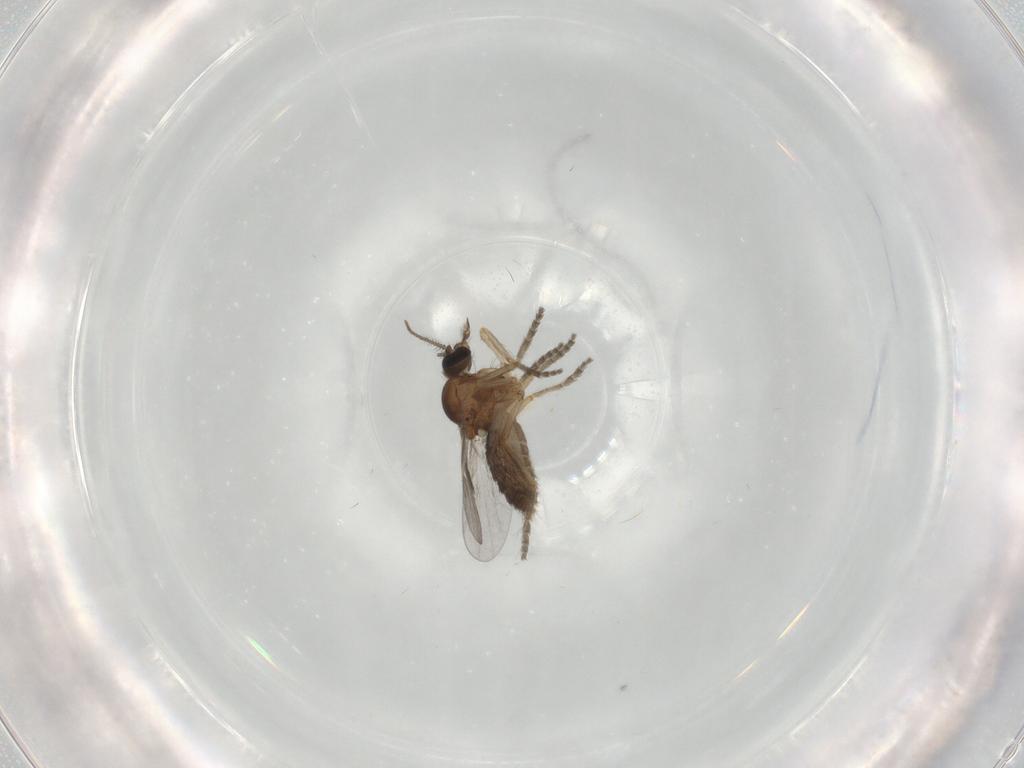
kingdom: Animalia
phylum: Arthropoda
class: Insecta
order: Diptera
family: Ceratopogonidae
